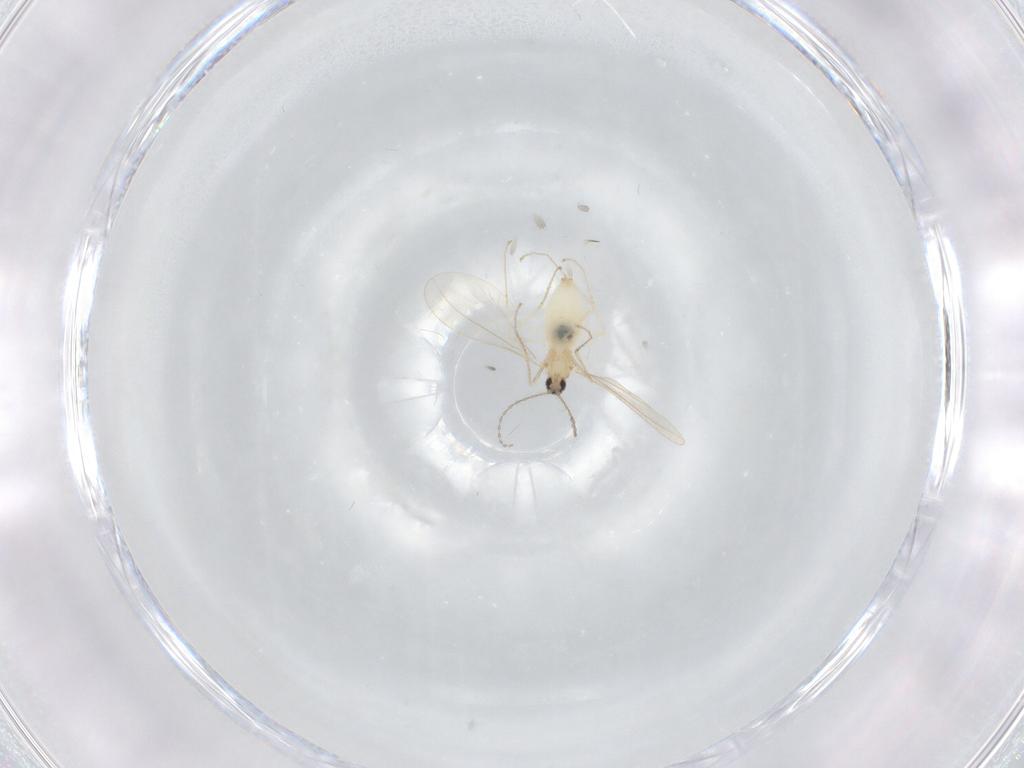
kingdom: Animalia
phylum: Arthropoda
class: Insecta
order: Diptera
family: Cecidomyiidae
